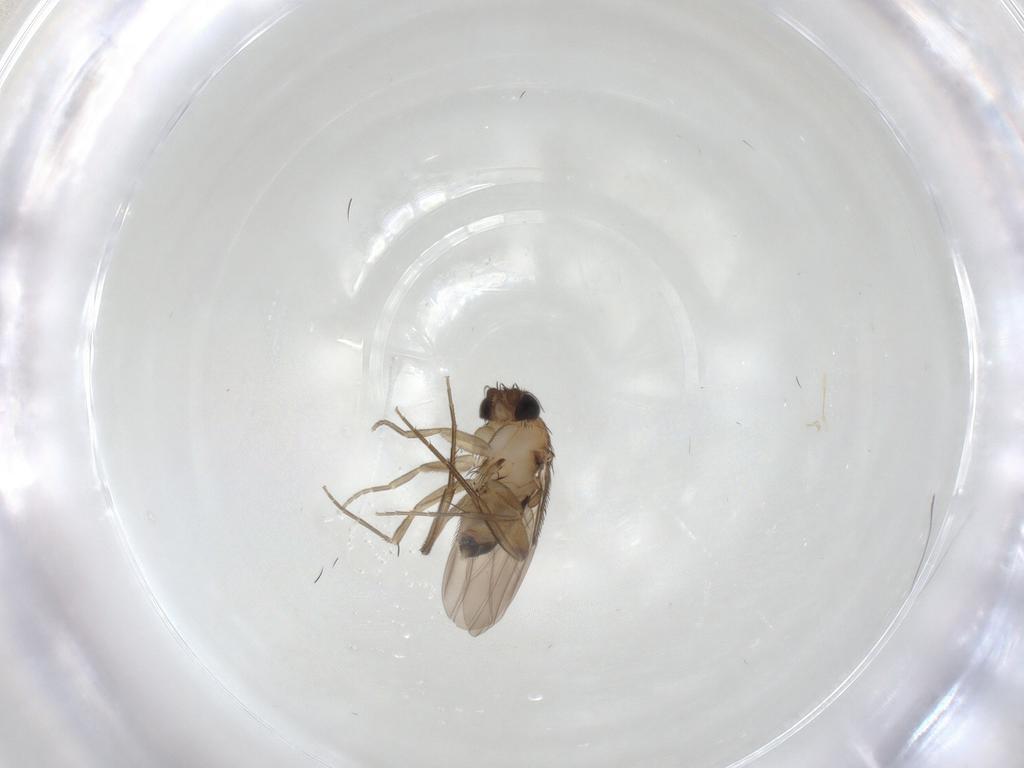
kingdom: Animalia
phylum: Arthropoda
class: Insecta
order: Diptera
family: Phoridae
